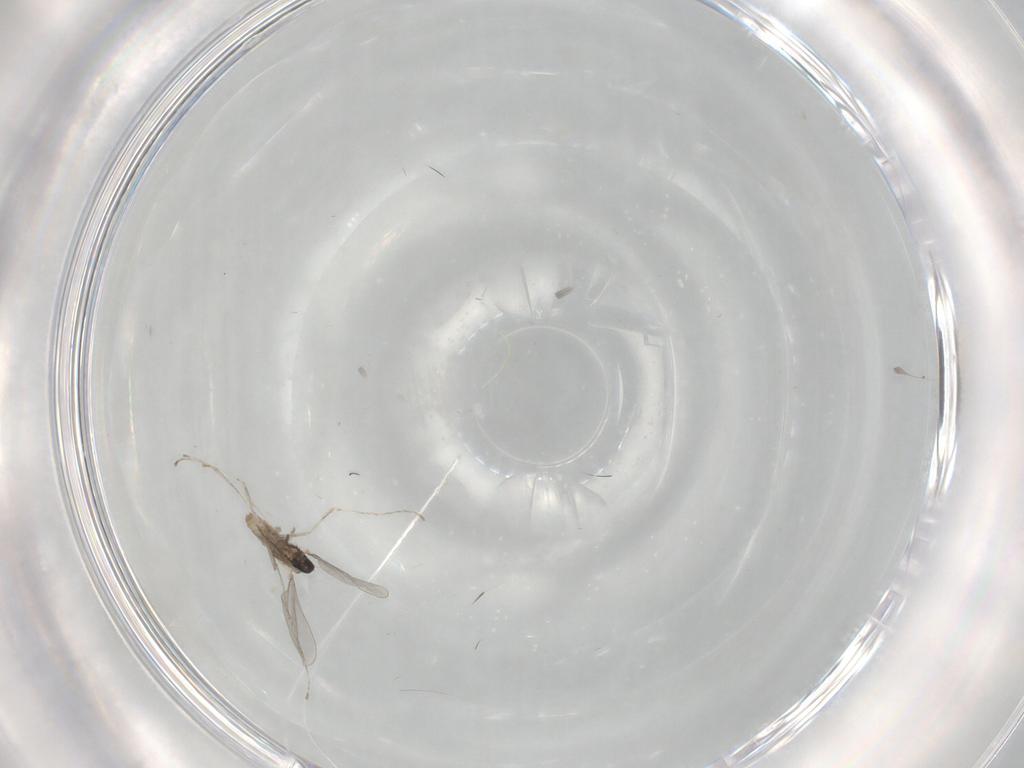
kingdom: Animalia
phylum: Arthropoda
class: Insecta
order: Diptera
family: Cecidomyiidae
